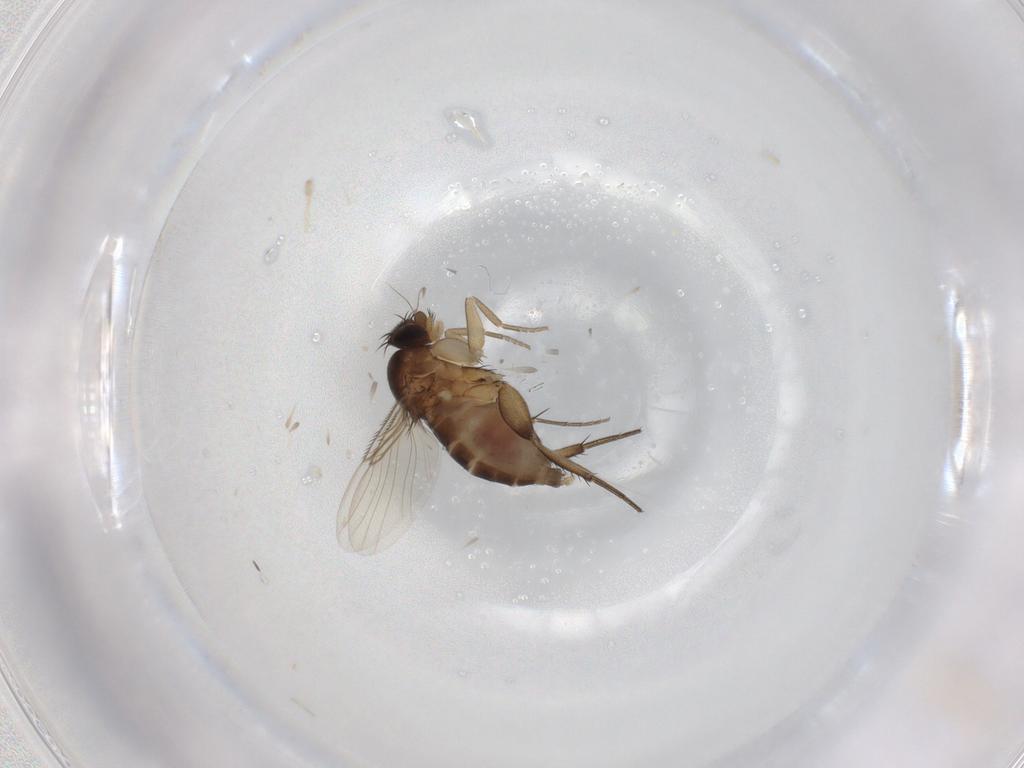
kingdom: Animalia
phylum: Arthropoda
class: Insecta
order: Diptera
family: Phoridae
